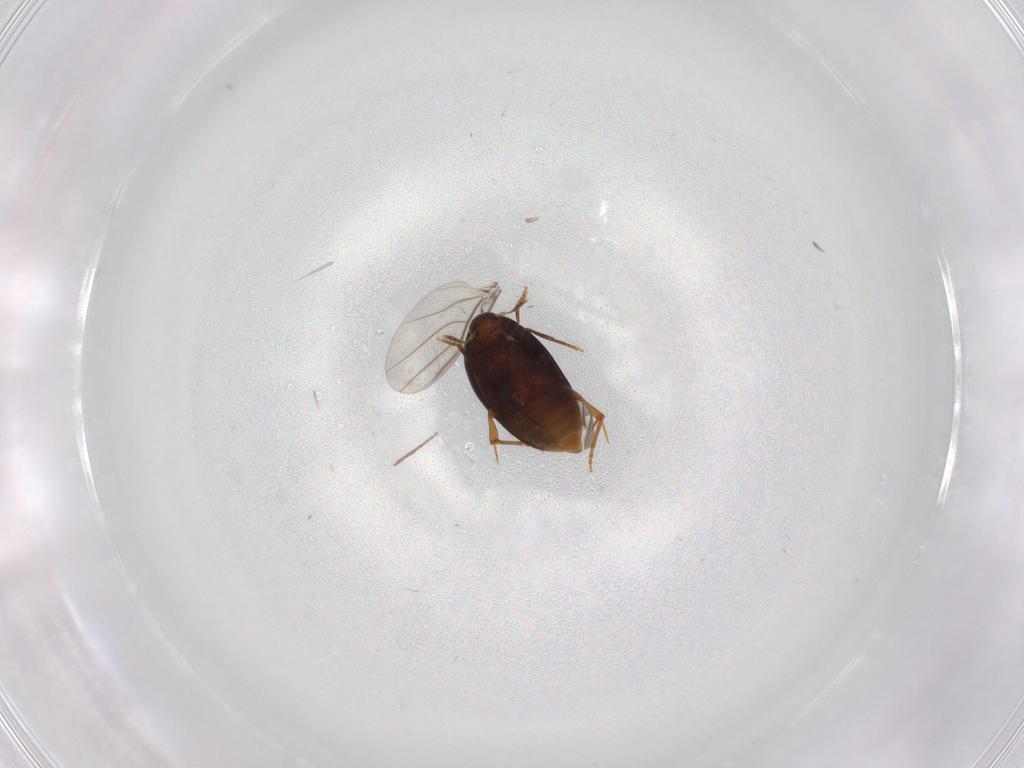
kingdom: Animalia
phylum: Arthropoda
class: Insecta
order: Coleoptera
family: Melandryidae
